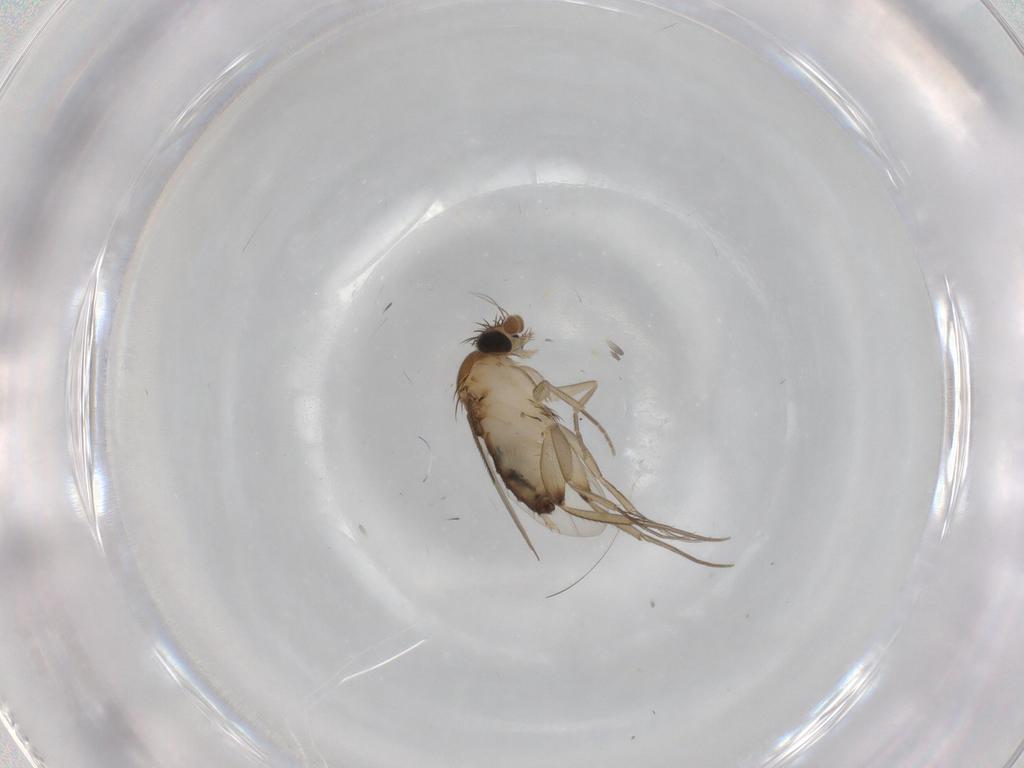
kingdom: Animalia
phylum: Arthropoda
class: Insecta
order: Diptera
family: Phoridae
